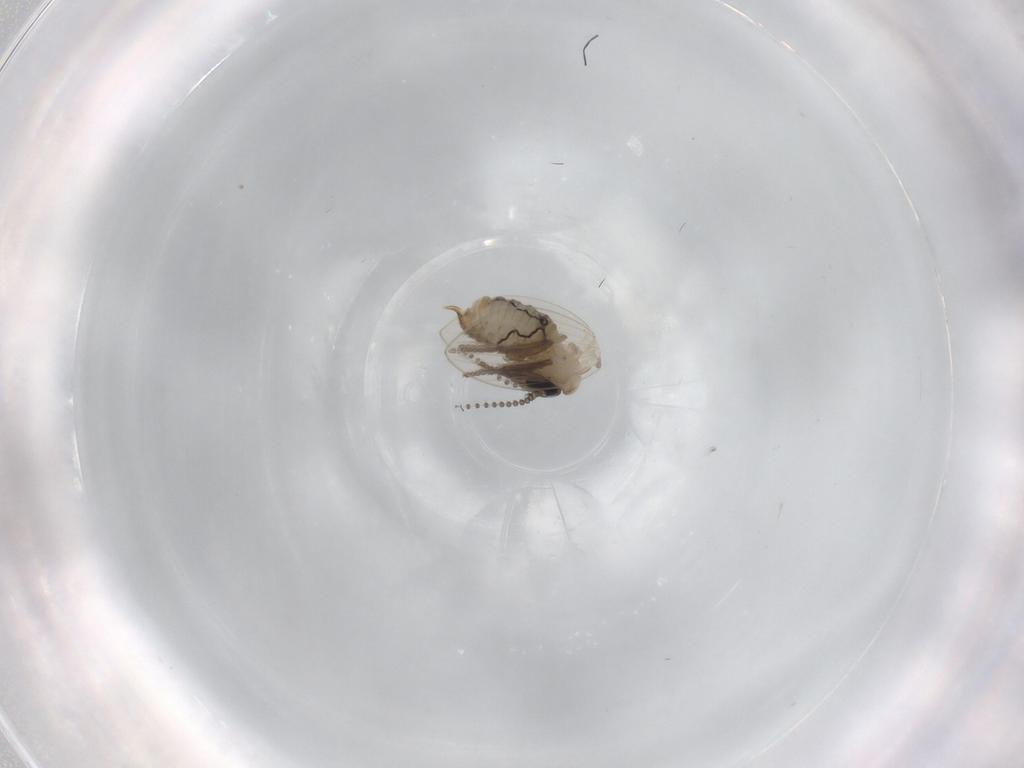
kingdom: Animalia
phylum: Arthropoda
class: Insecta
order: Diptera
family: Psychodidae
